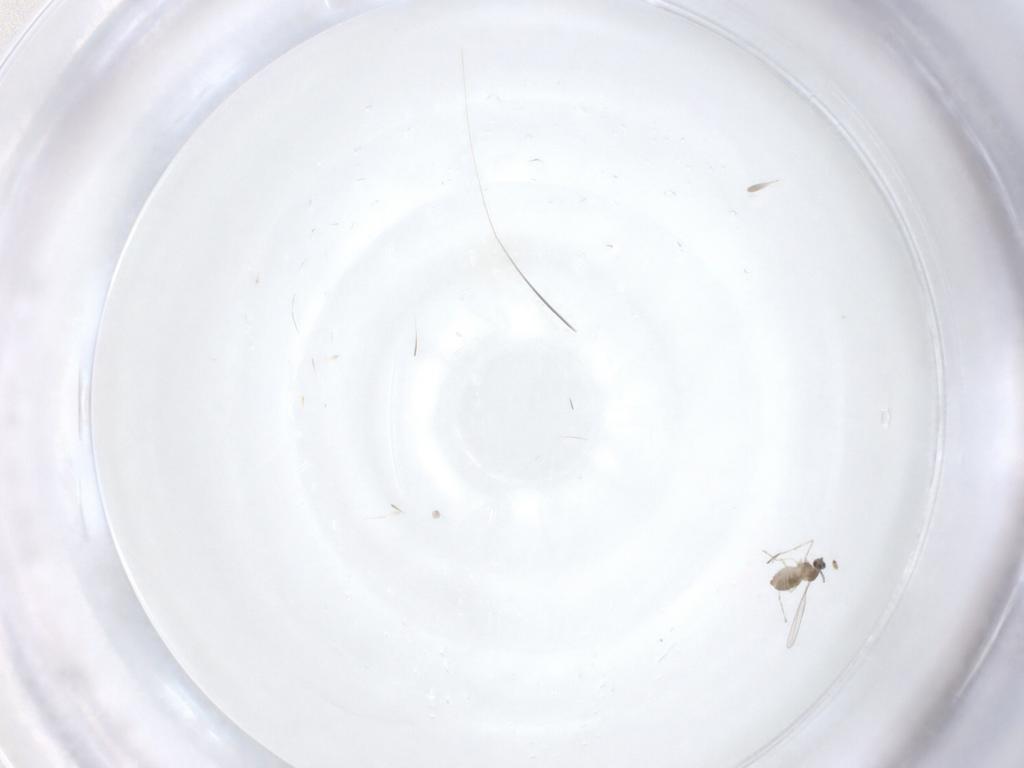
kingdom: Animalia
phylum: Arthropoda
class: Insecta
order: Diptera
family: Cecidomyiidae
